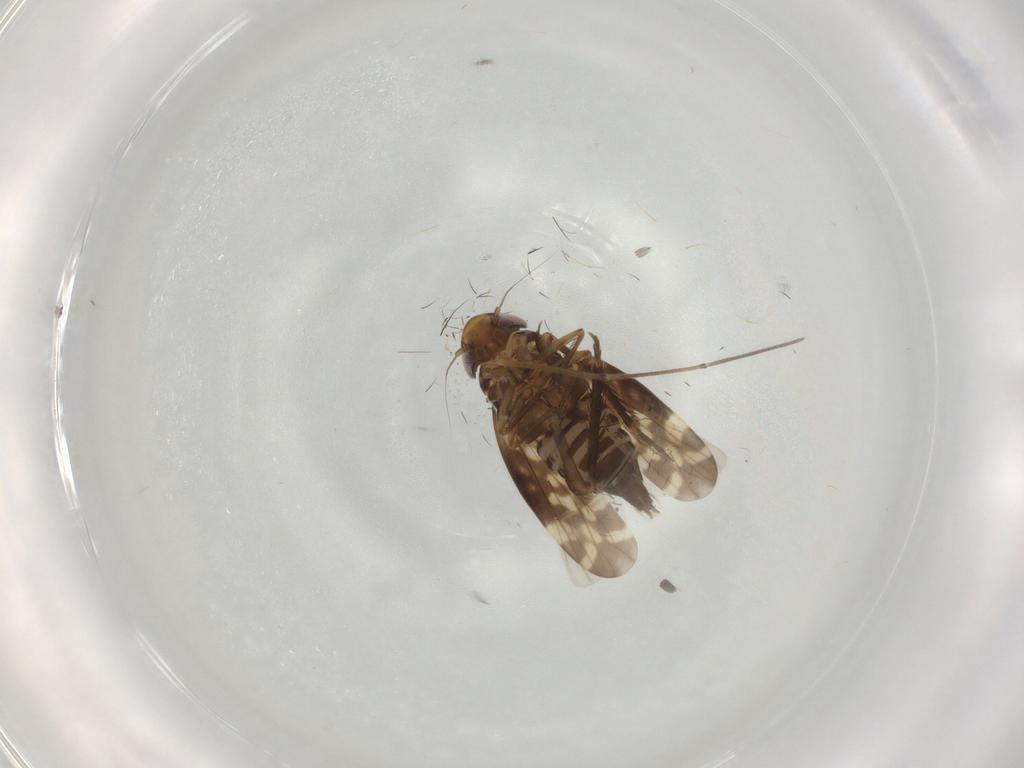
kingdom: Animalia
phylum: Arthropoda
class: Insecta
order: Hemiptera
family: Cicadellidae
